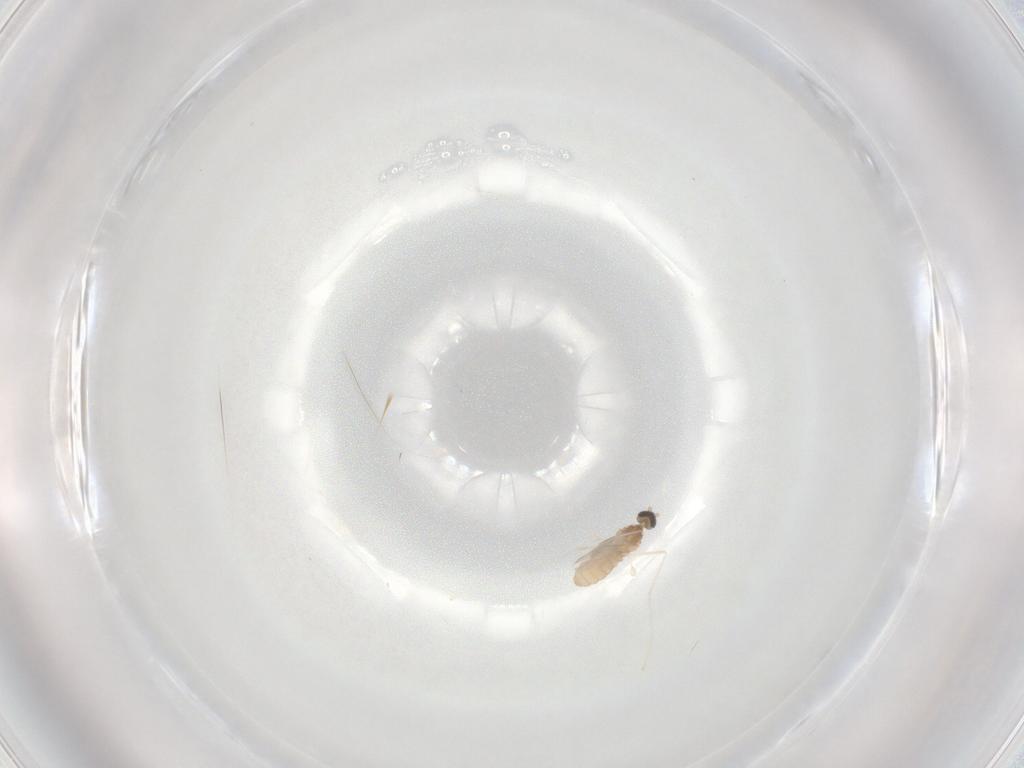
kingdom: Animalia
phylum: Arthropoda
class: Insecta
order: Diptera
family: Cecidomyiidae
